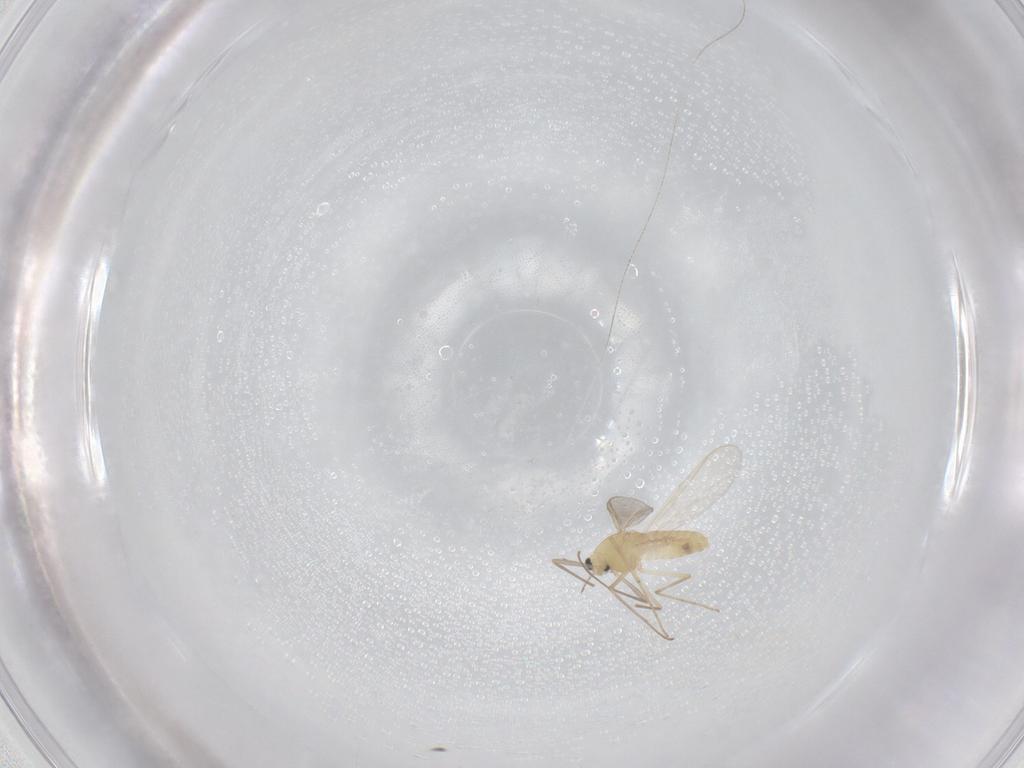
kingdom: Animalia
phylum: Arthropoda
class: Insecta
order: Diptera
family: Chironomidae
